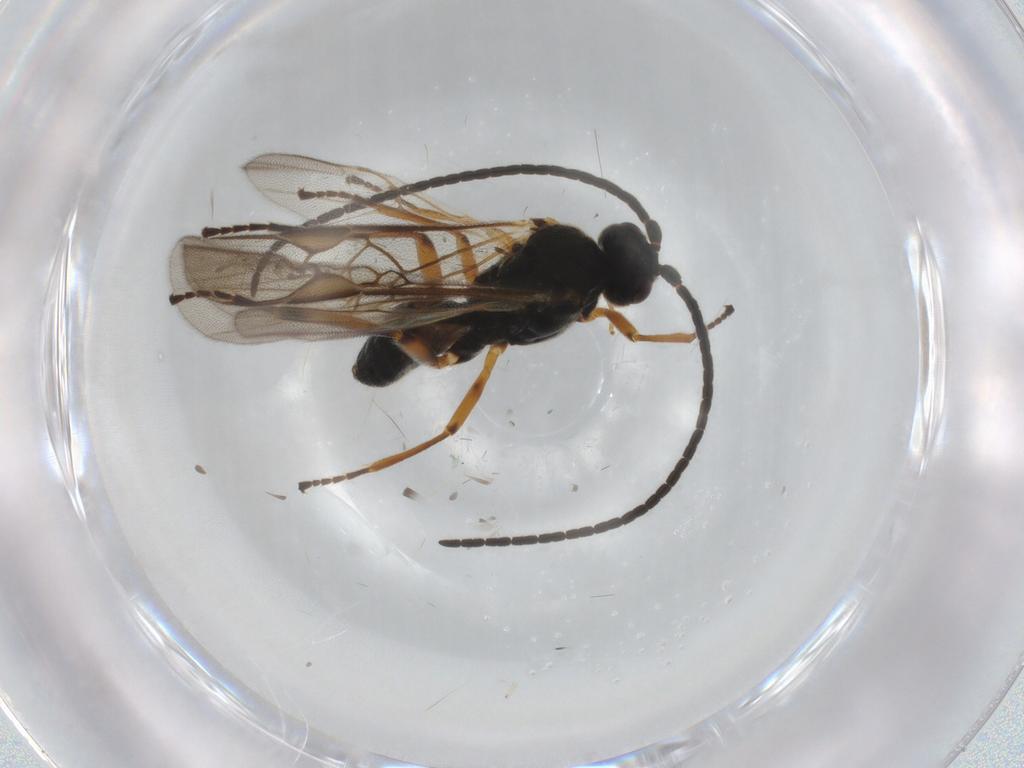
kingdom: Animalia
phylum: Arthropoda
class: Insecta
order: Hymenoptera
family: Braconidae
